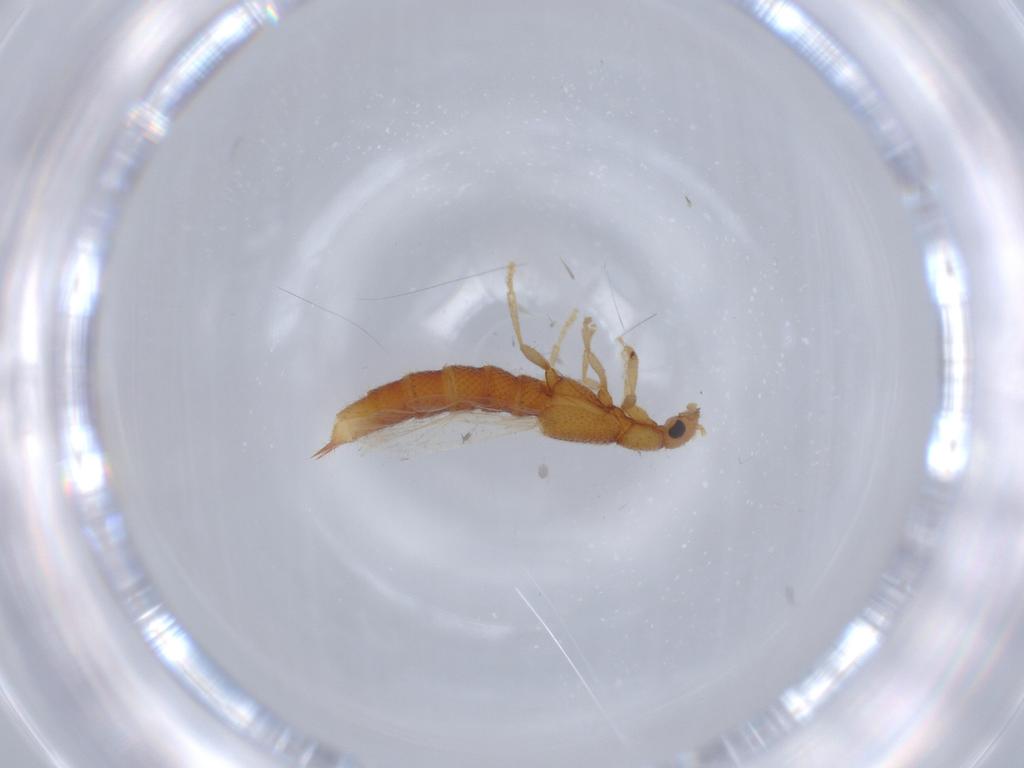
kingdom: Animalia
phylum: Arthropoda
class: Insecta
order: Coleoptera
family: Staphylinidae
